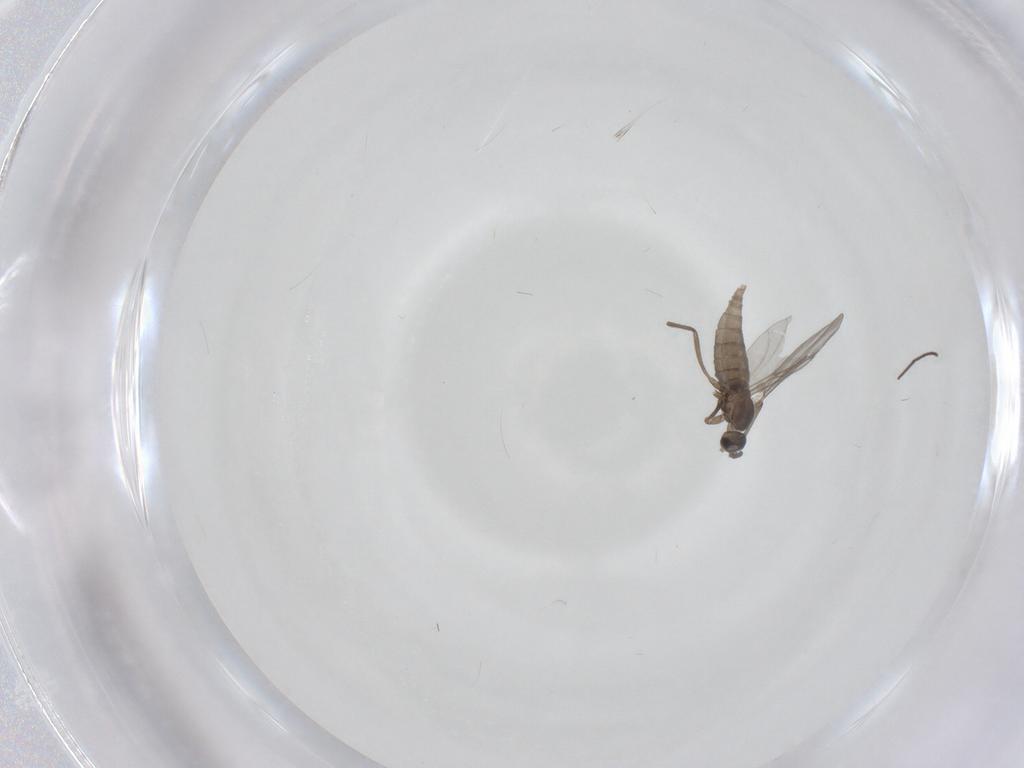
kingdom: Animalia
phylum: Arthropoda
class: Insecta
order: Diptera
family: Cecidomyiidae
